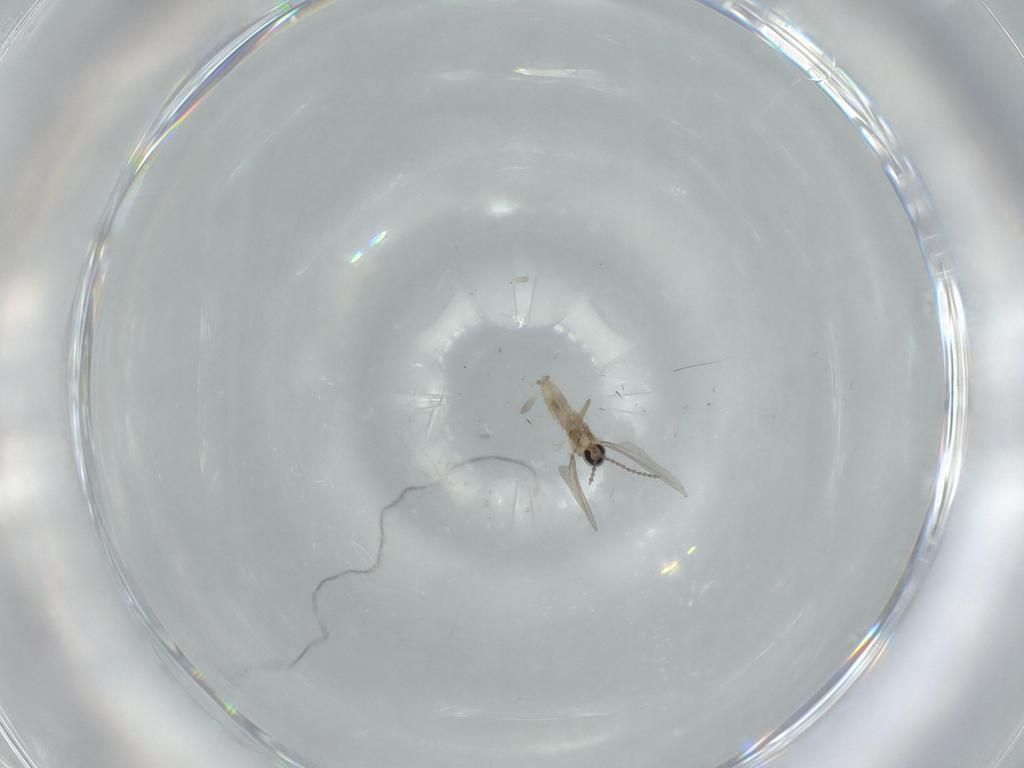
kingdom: Animalia
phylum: Arthropoda
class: Insecta
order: Diptera
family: Cecidomyiidae
